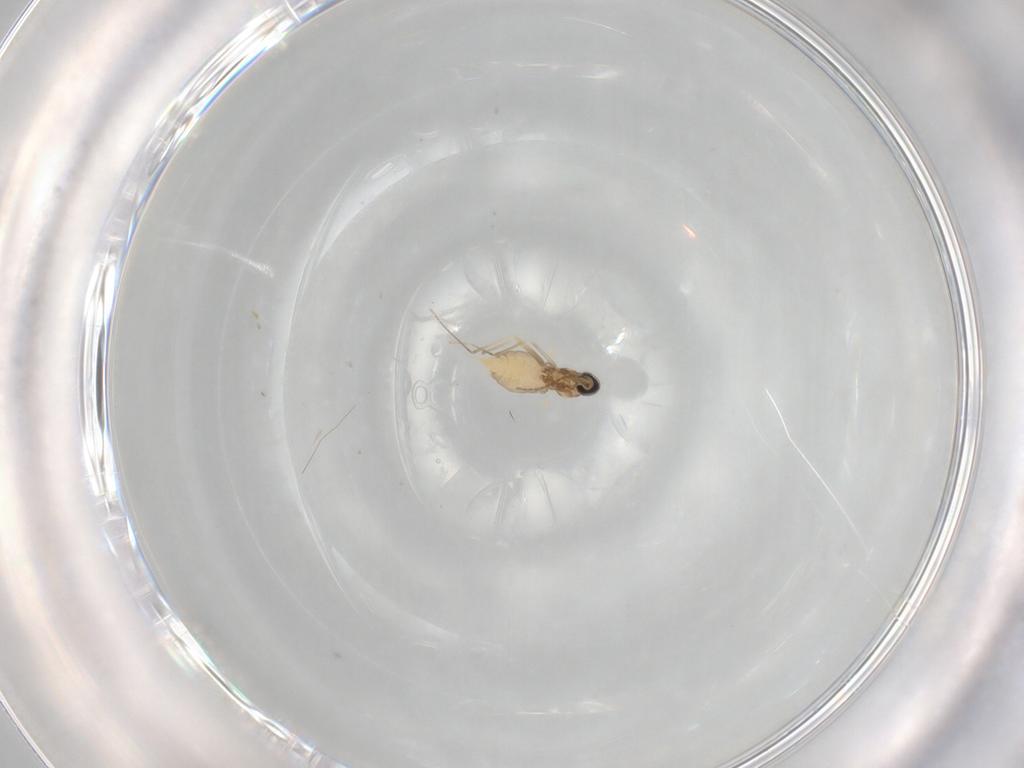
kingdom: Animalia
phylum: Arthropoda
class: Insecta
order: Diptera
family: Cecidomyiidae
